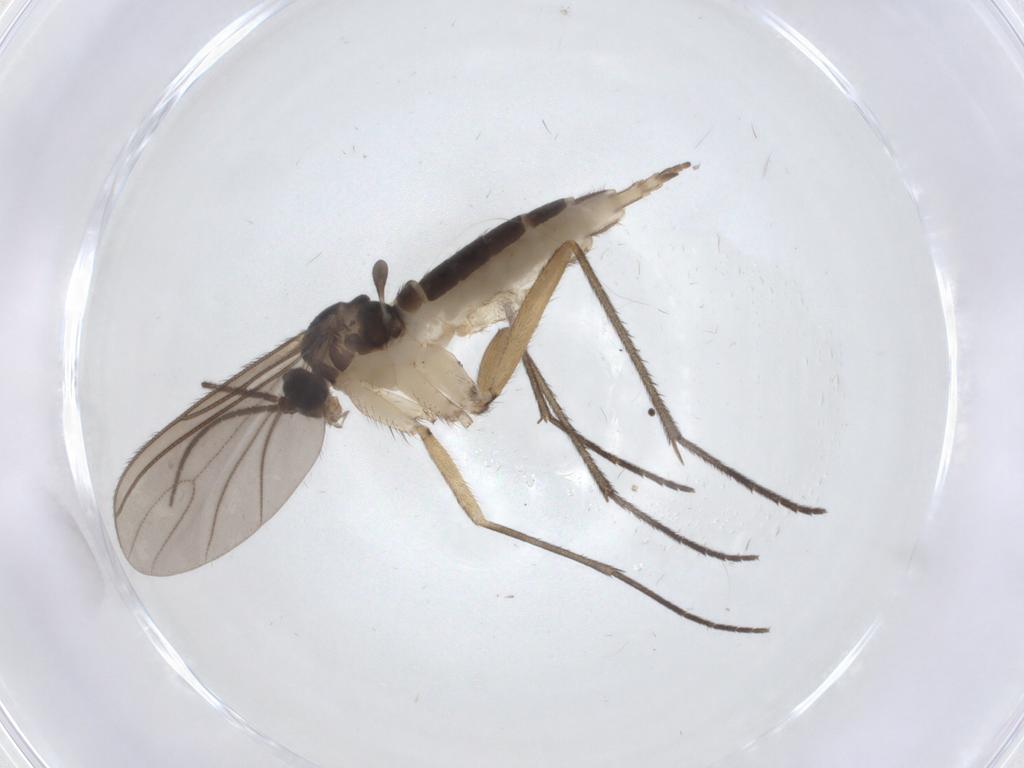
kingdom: Animalia
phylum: Arthropoda
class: Insecta
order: Diptera
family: Sciaridae
